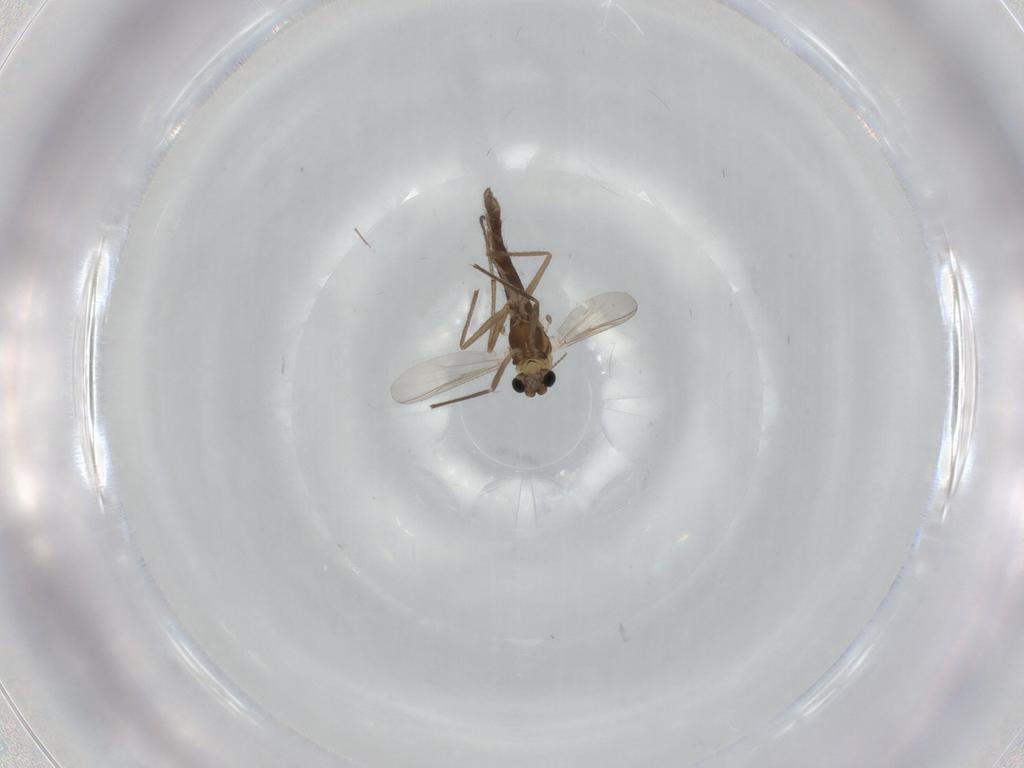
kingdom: Animalia
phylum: Arthropoda
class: Insecta
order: Diptera
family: Chironomidae
